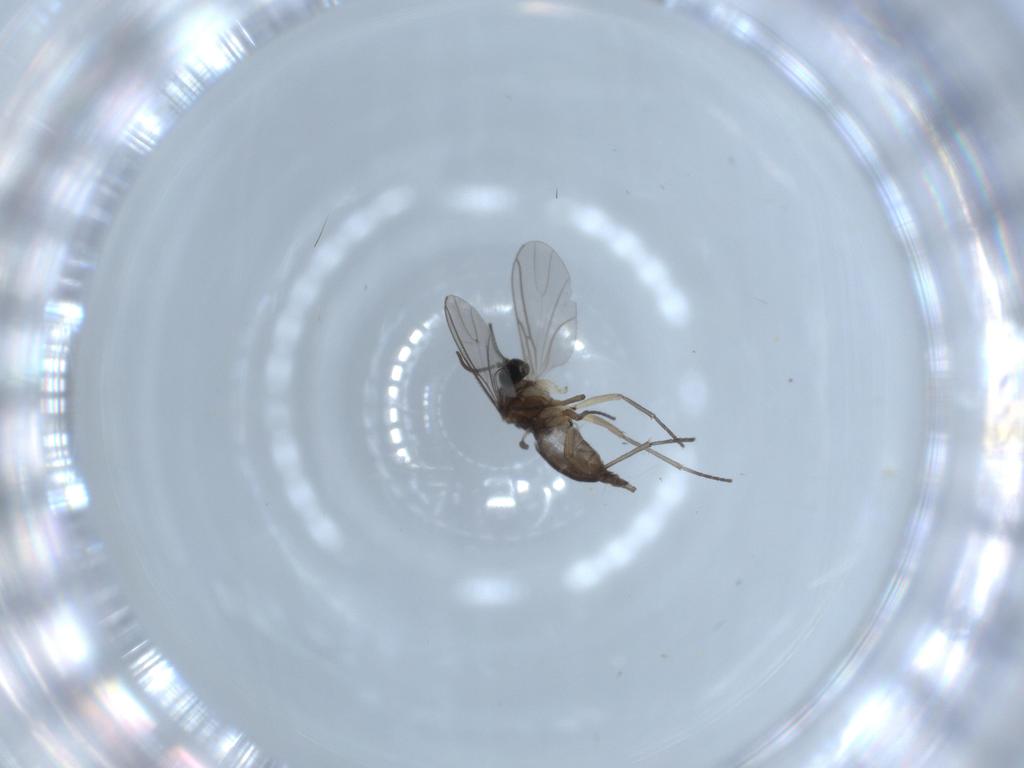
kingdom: Animalia
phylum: Arthropoda
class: Insecta
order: Diptera
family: Sciaridae
